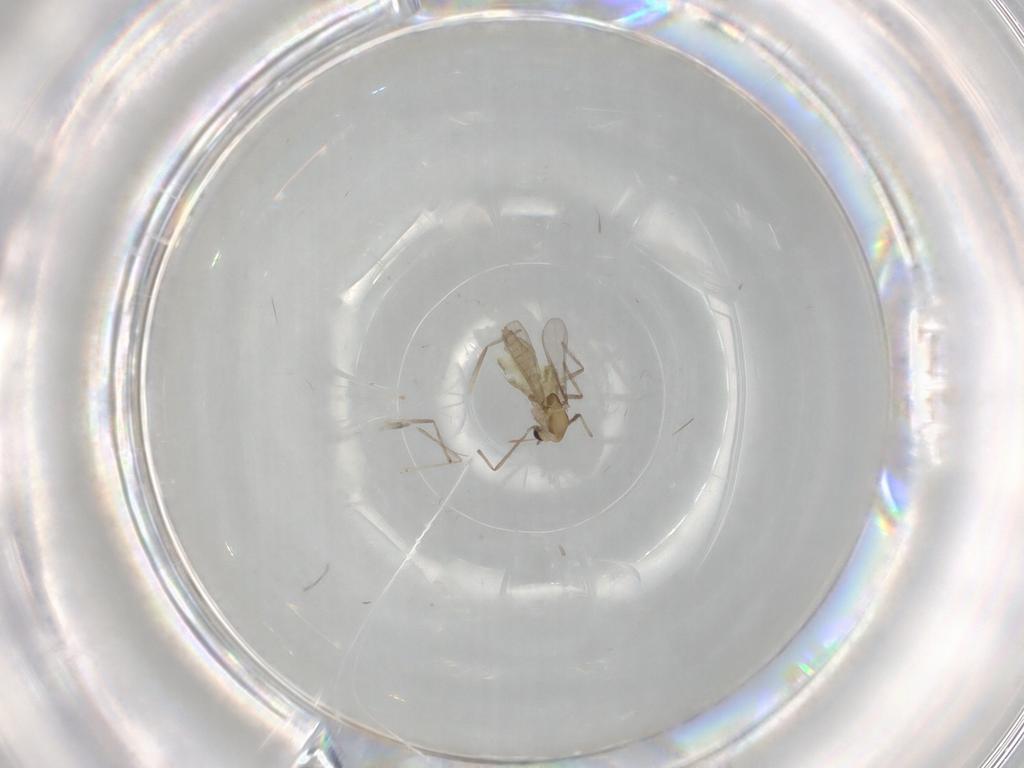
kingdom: Animalia
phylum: Arthropoda
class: Insecta
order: Diptera
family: Chironomidae
